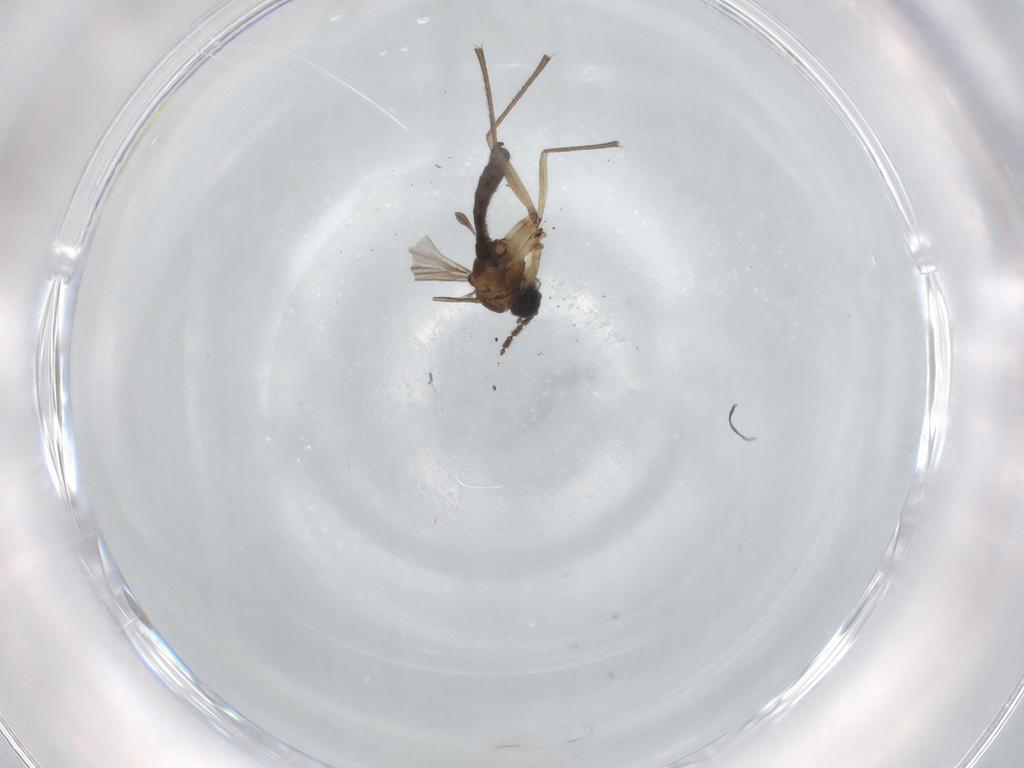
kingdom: Animalia
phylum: Arthropoda
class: Insecta
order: Diptera
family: Sciaridae
